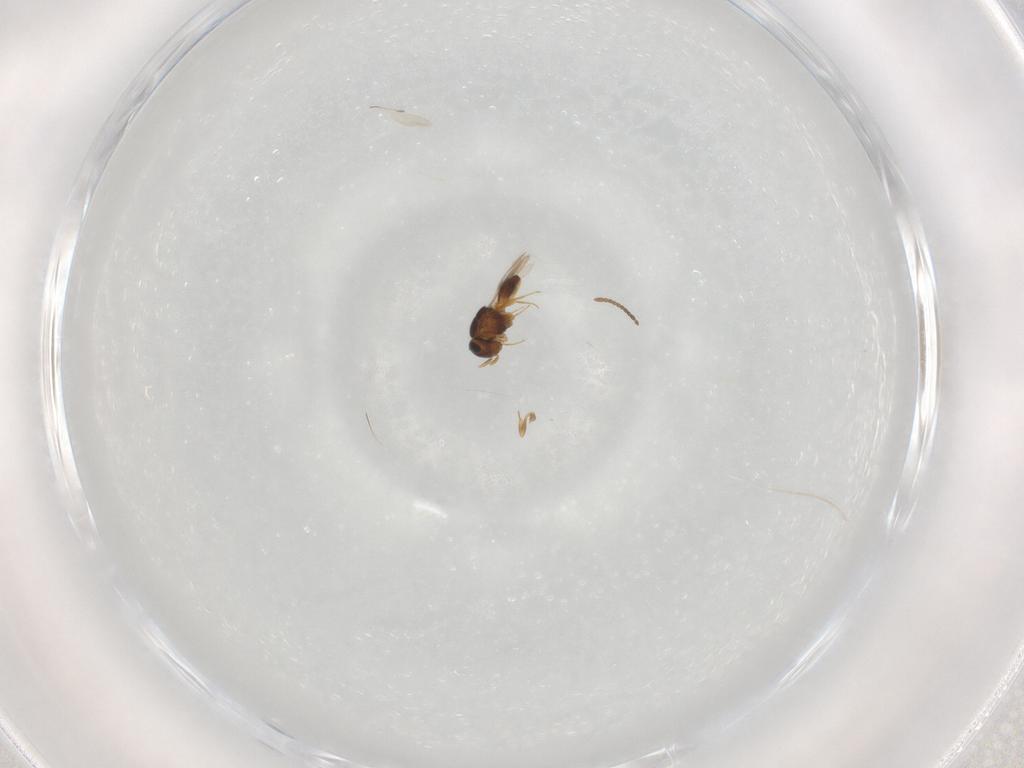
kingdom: Animalia
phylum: Arthropoda
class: Insecta
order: Hymenoptera
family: Scelionidae
